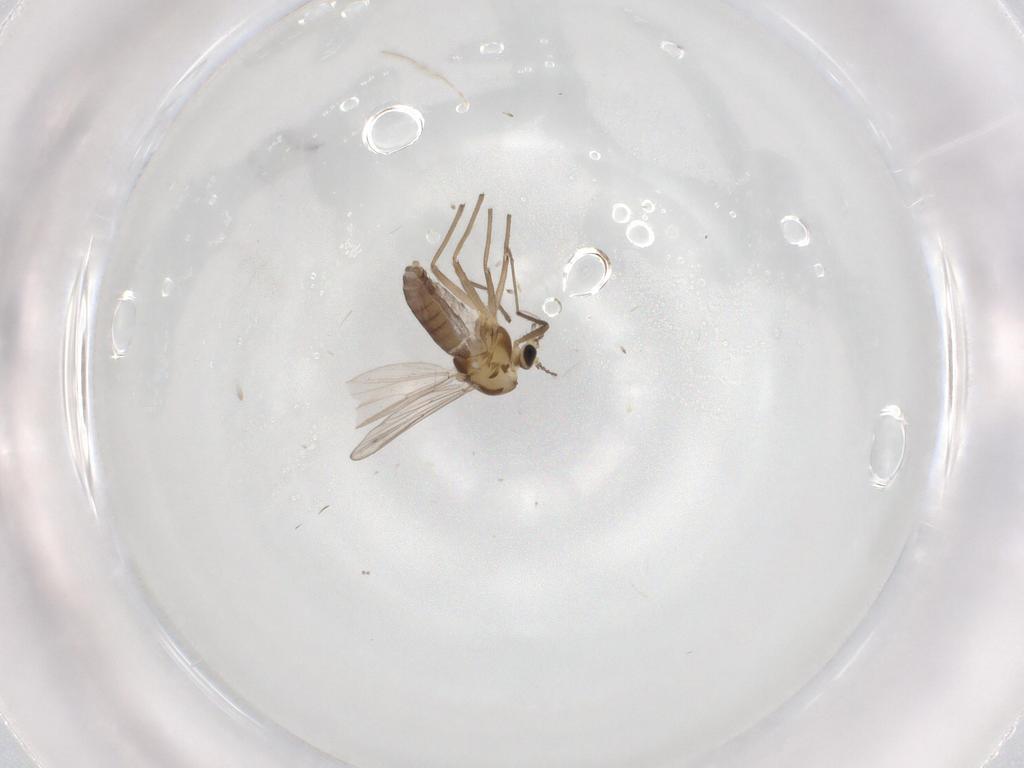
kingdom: Animalia
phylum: Arthropoda
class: Insecta
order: Diptera
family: Chironomidae
